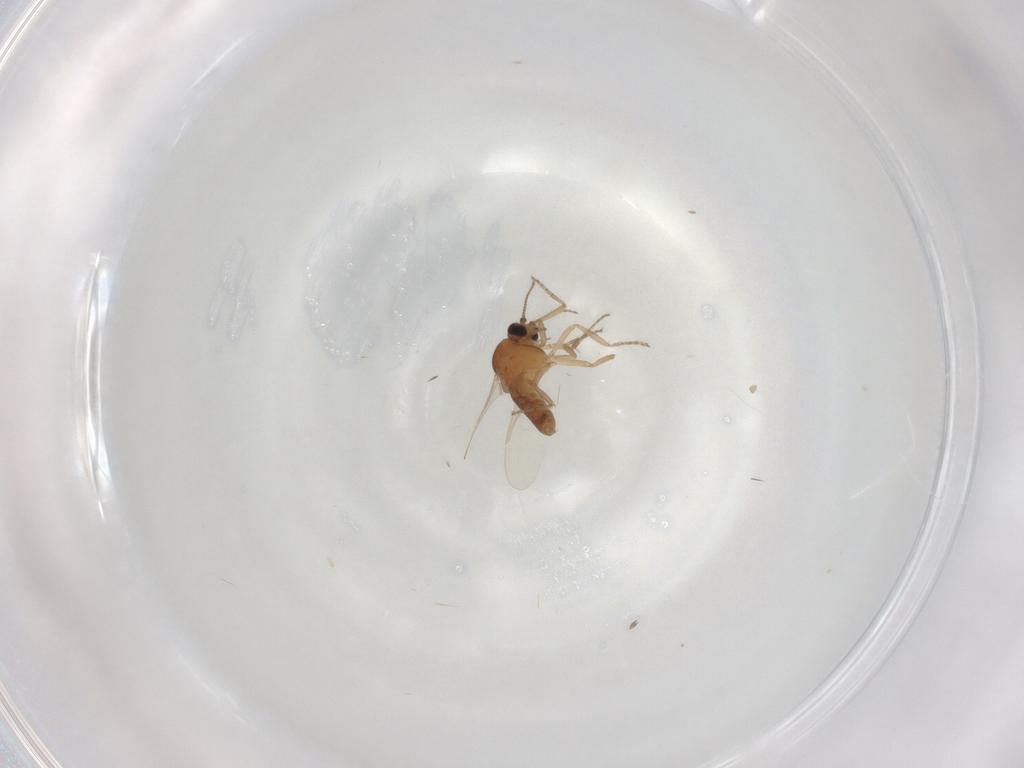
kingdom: Animalia
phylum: Arthropoda
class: Insecta
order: Diptera
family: Ceratopogonidae
